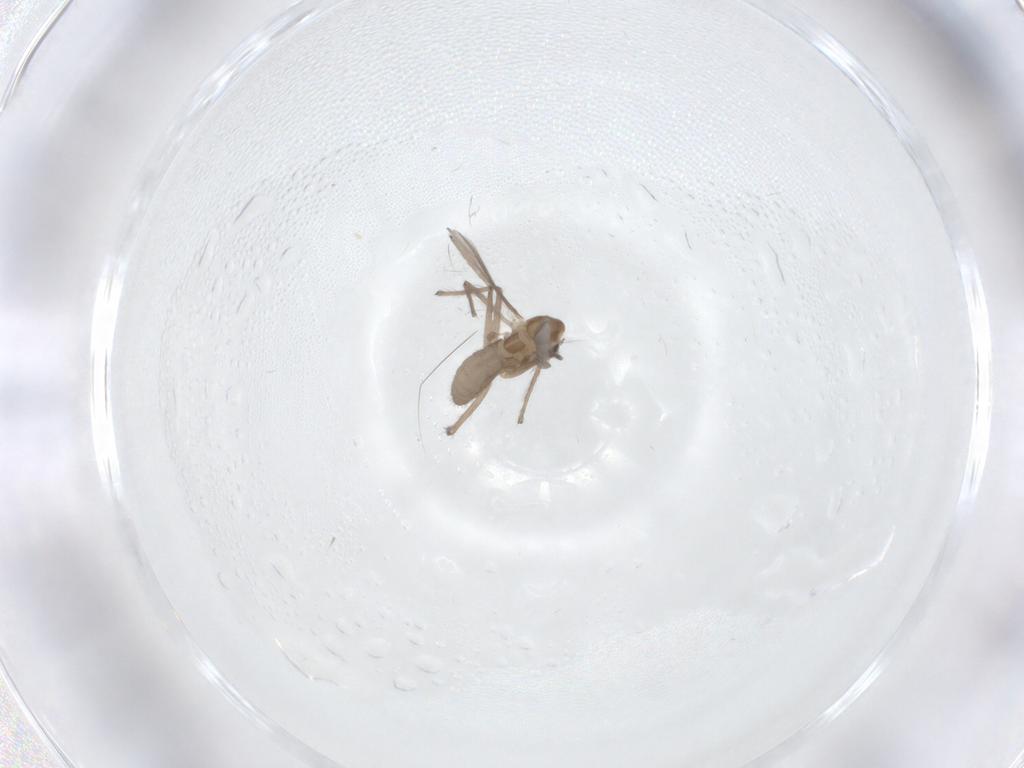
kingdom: Animalia
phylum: Arthropoda
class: Insecta
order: Diptera
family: Chironomidae
